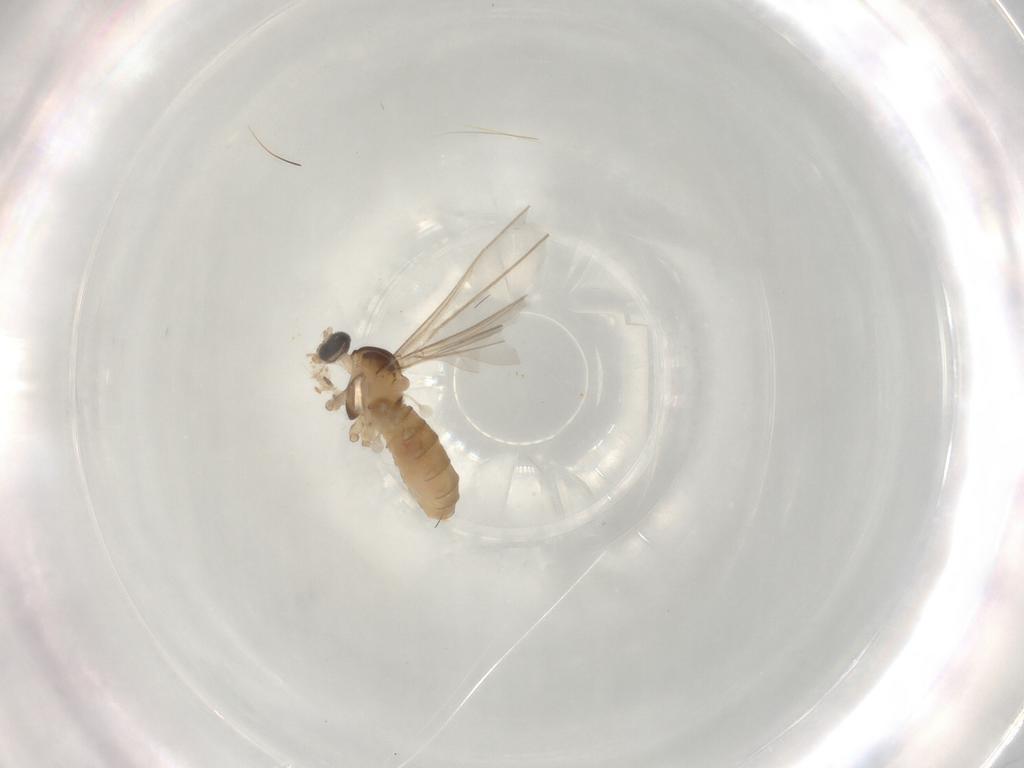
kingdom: Animalia
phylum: Arthropoda
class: Insecta
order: Diptera
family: Cecidomyiidae
